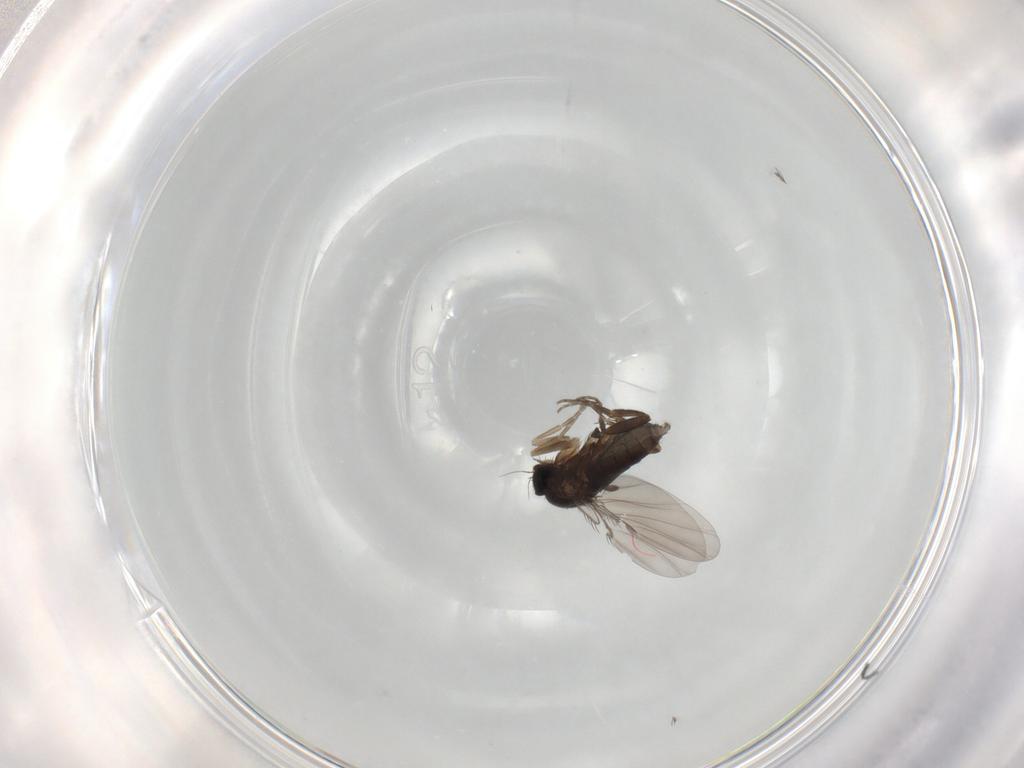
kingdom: Animalia
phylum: Arthropoda
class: Insecta
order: Diptera
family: Phoridae
